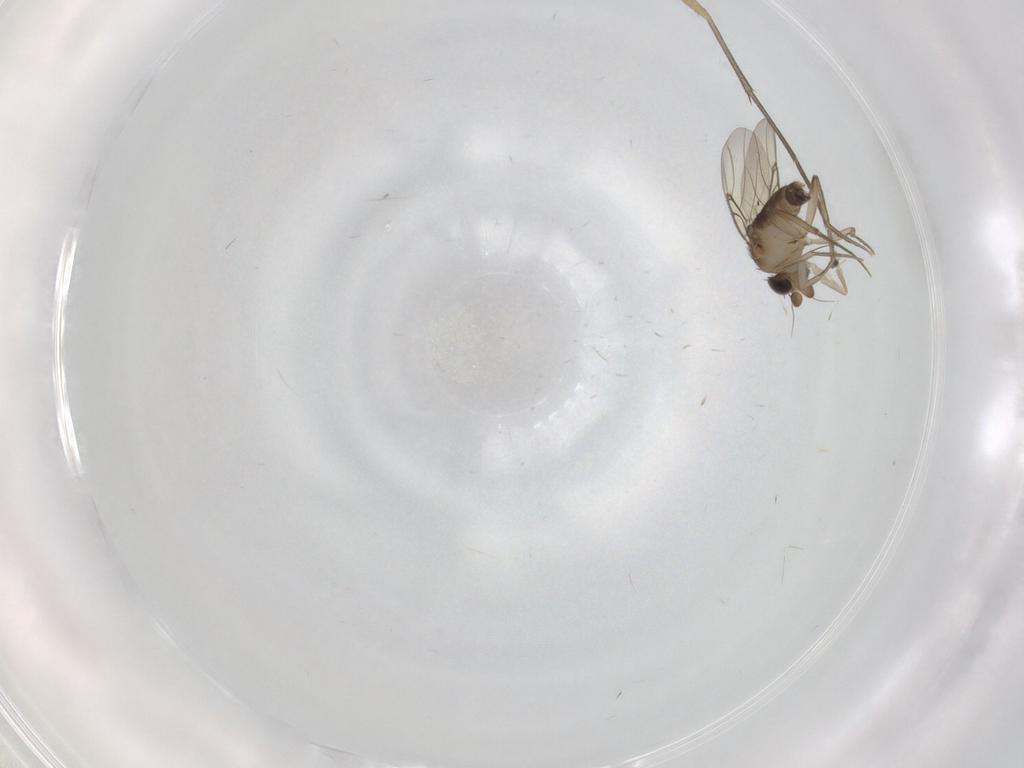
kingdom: Animalia
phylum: Arthropoda
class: Insecta
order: Diptera
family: Phoridae
